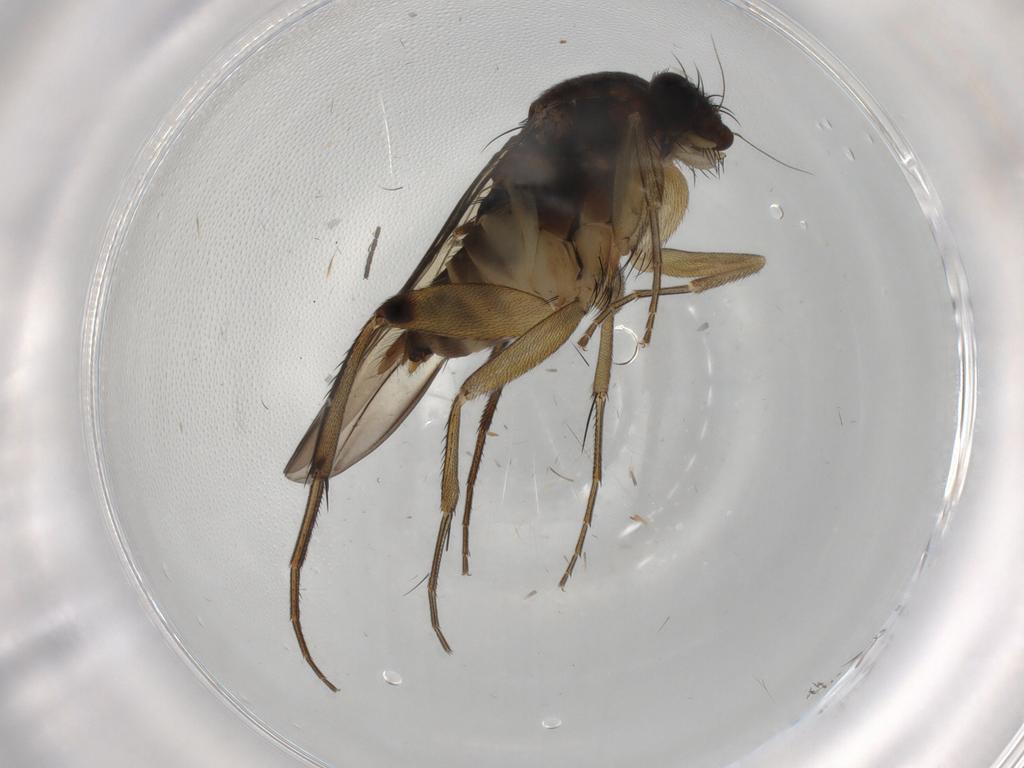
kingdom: Animalia
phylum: Arthropoda
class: Insecta
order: Diptera
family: Phoridae
